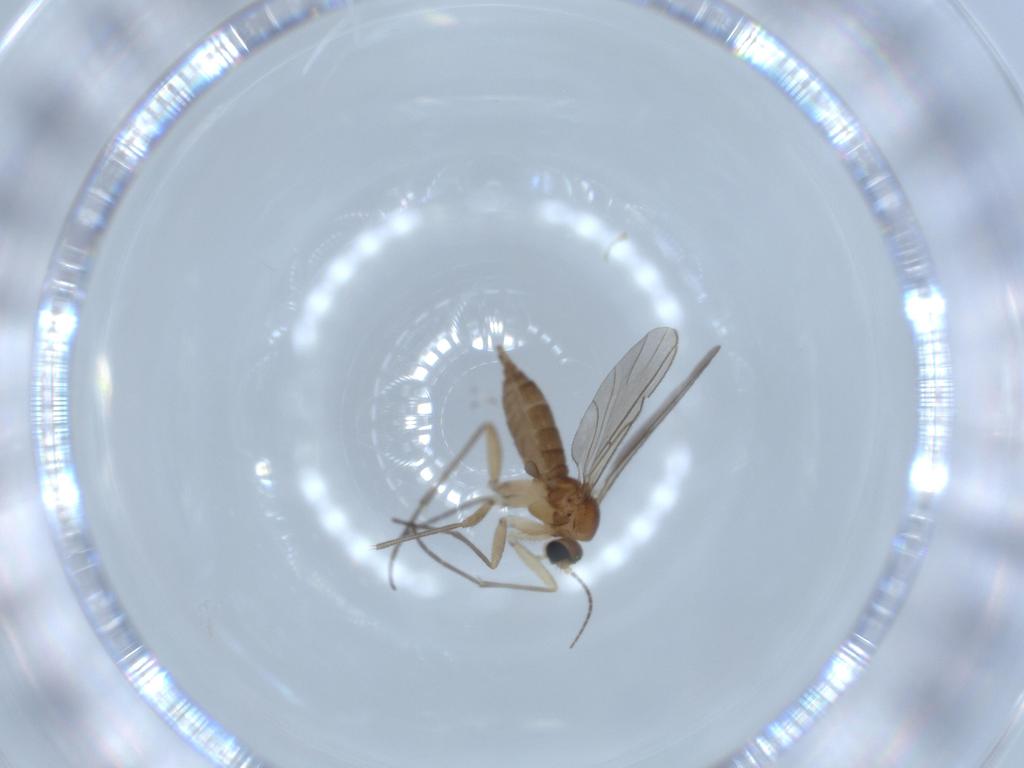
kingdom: Animalia
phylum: Arthropoda
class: Insecta
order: Diptera
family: Sciaridae
